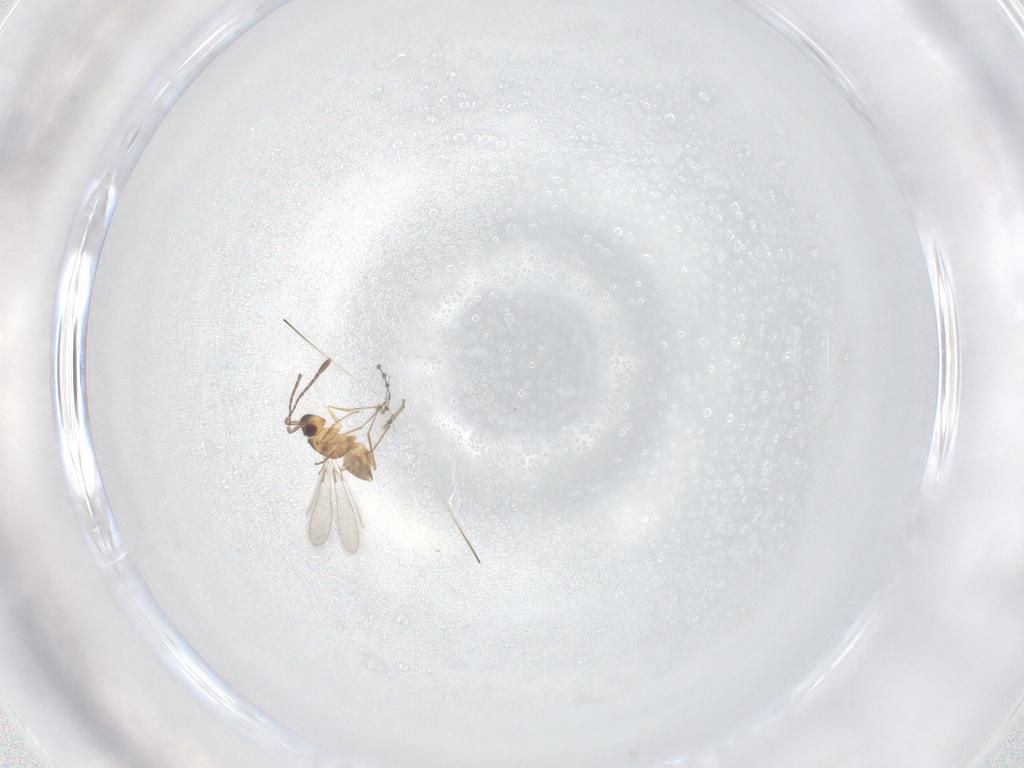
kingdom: Animalia
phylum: Arthropoda
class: Insecta
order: Hymenoptera
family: Mymaridae
